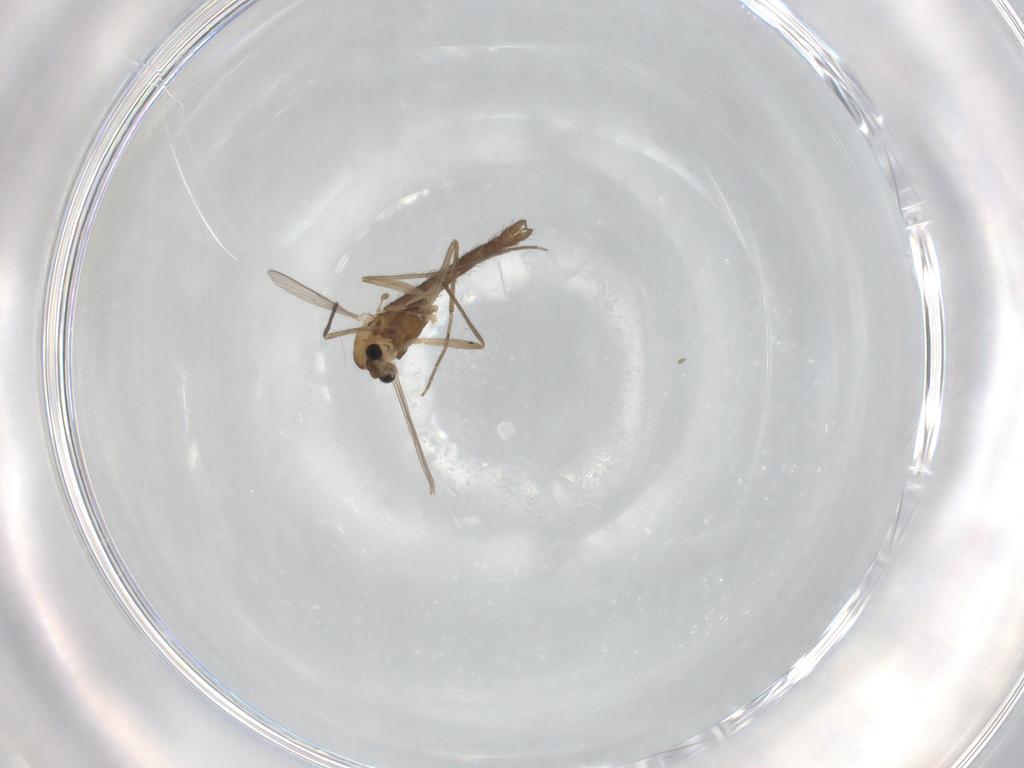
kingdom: Animalia
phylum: Arthropoda
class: Insecta
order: Diptera
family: Chironomidae
